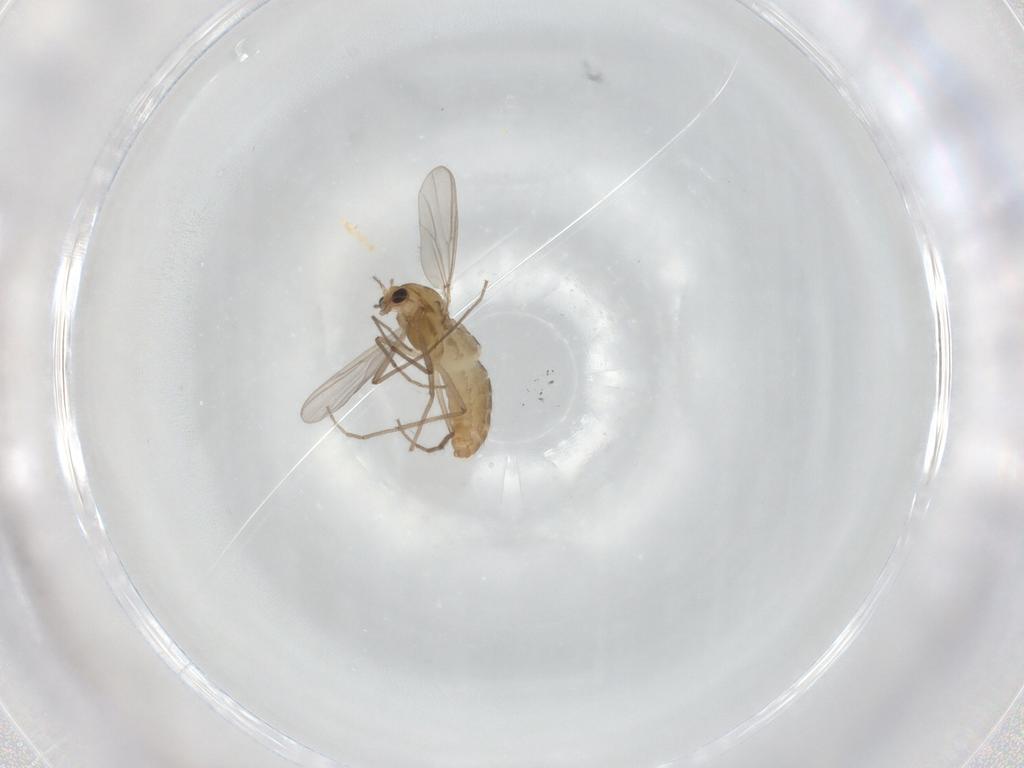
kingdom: Animalia
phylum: Arthropoda
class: Insecta
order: Diptera
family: Chironomidae
